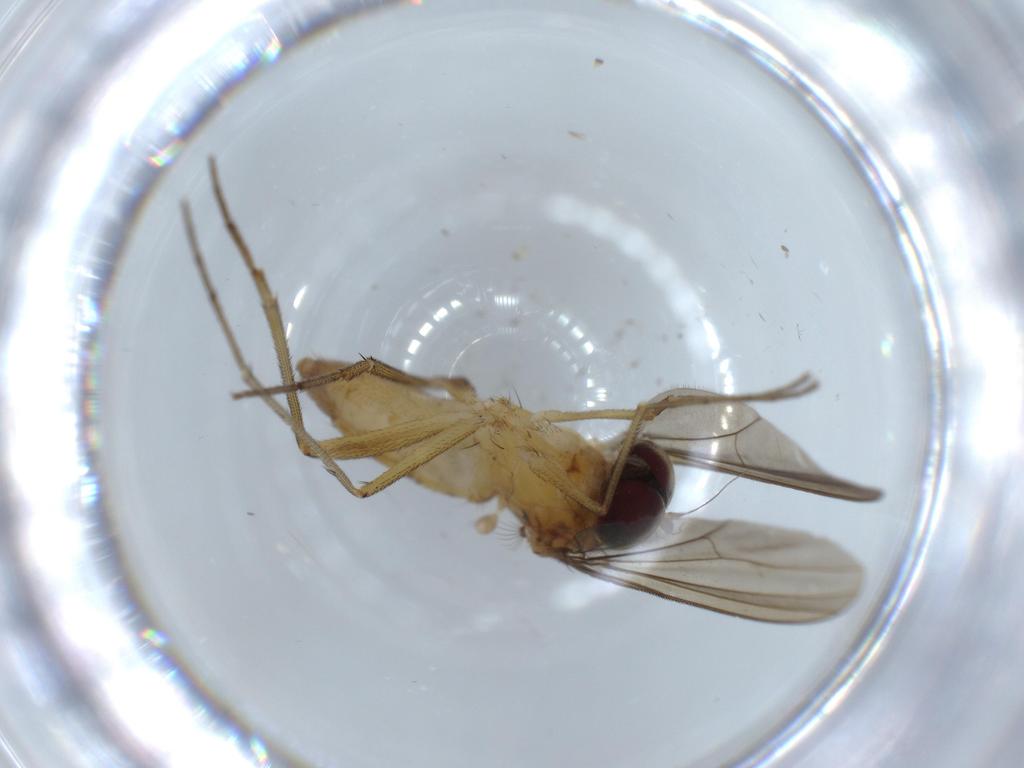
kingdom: Animalia
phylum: Arthropoda
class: Insecta
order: Diptera
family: Dolichopodidae
